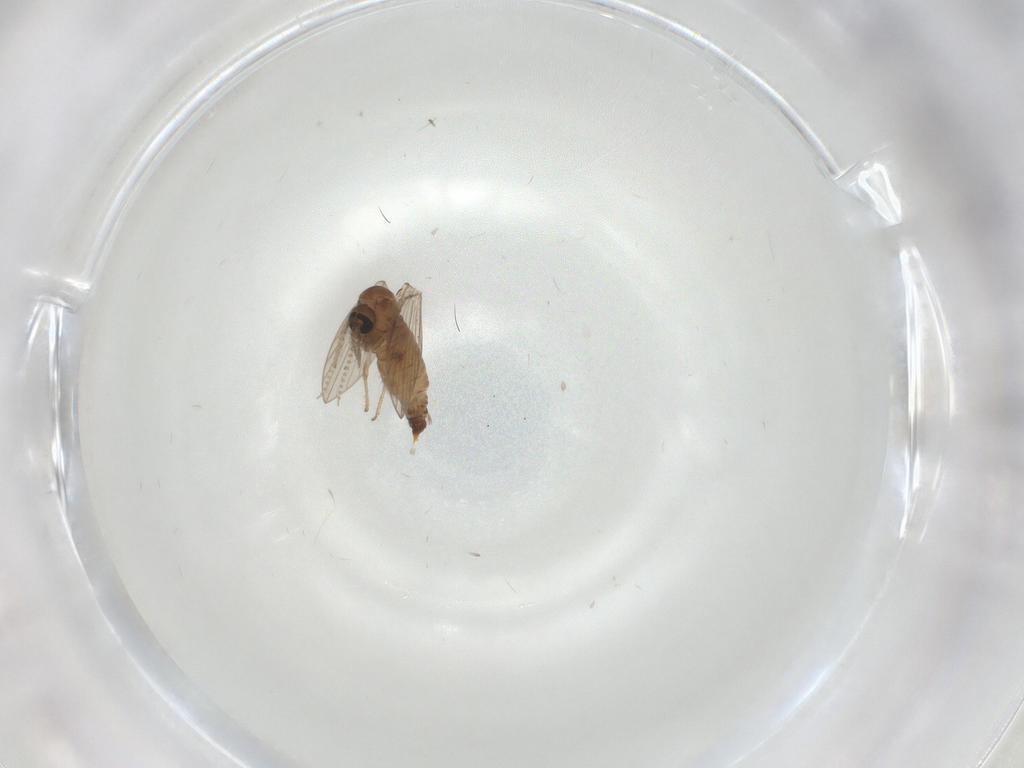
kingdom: Animalia
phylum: Arthropoda
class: Insecta
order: Diptera
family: Psychodidae
